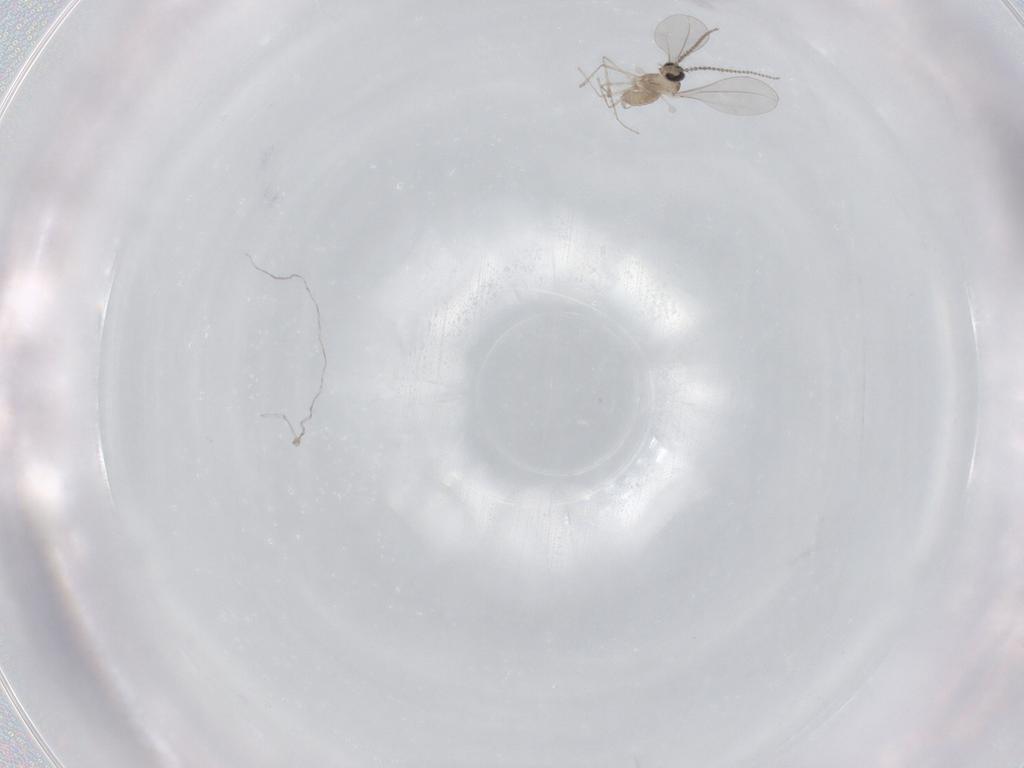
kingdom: Animalia
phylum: Arthropoda
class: Insecta
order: Diptera
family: Cecidomyiidae
